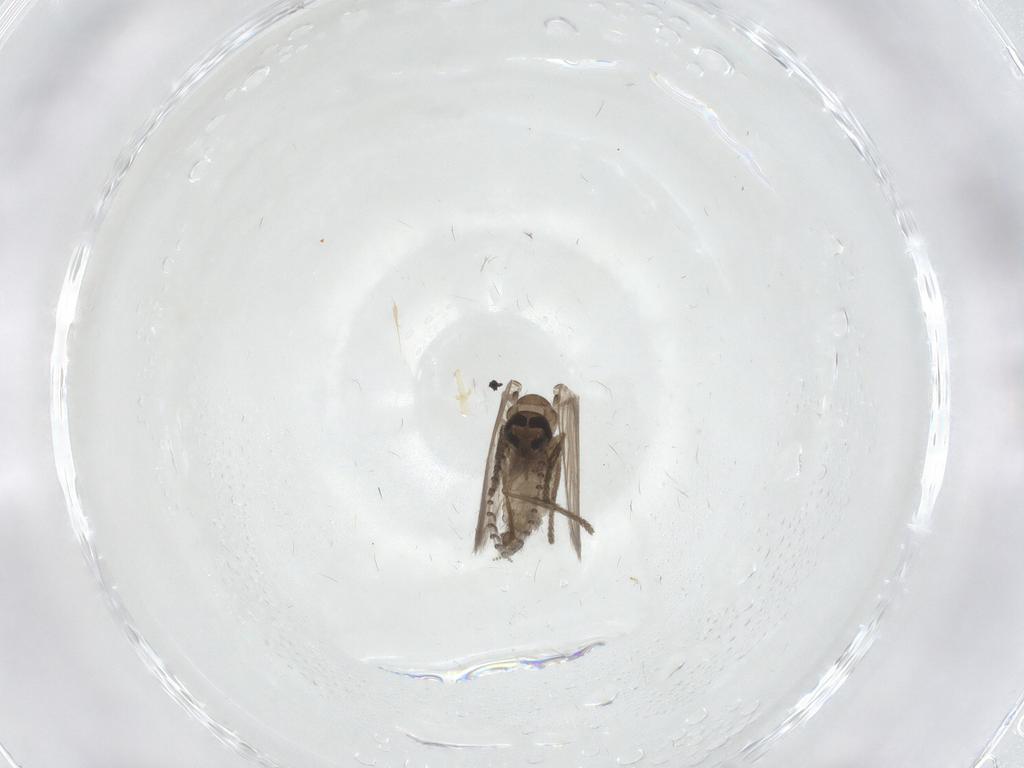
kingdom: Animalia
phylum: Arthropoda
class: Insecta
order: Diptera
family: Psychodidae
